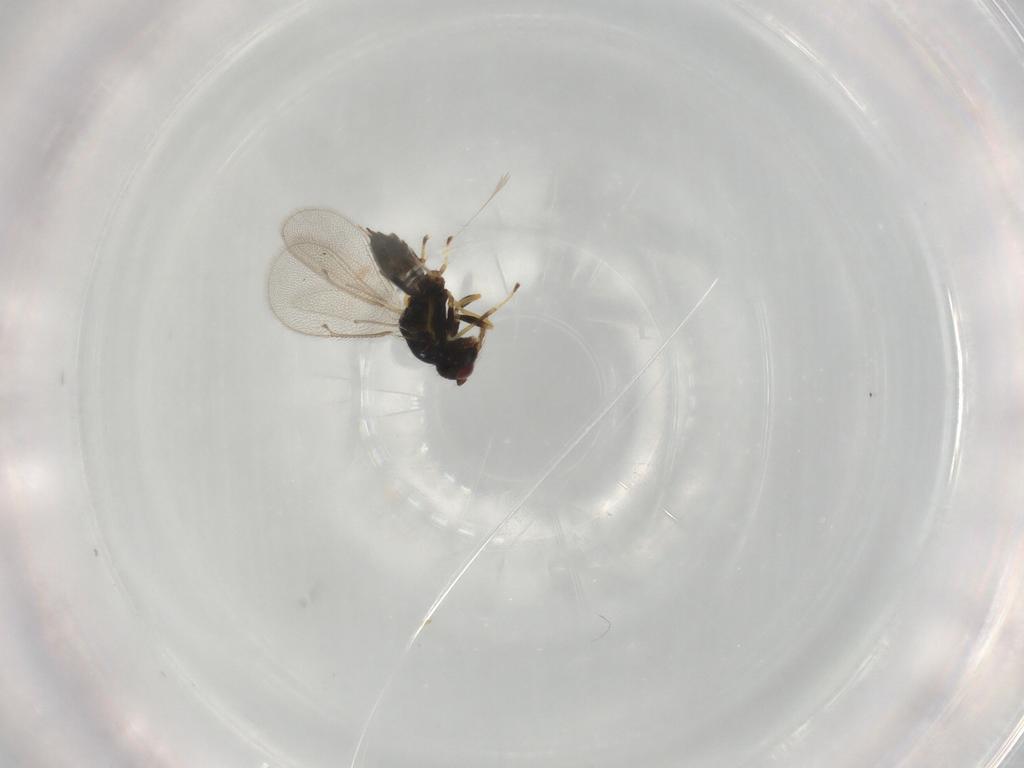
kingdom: Animalia
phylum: Arthropoda
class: Insecta
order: Hymenoptera
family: Eulophidae
